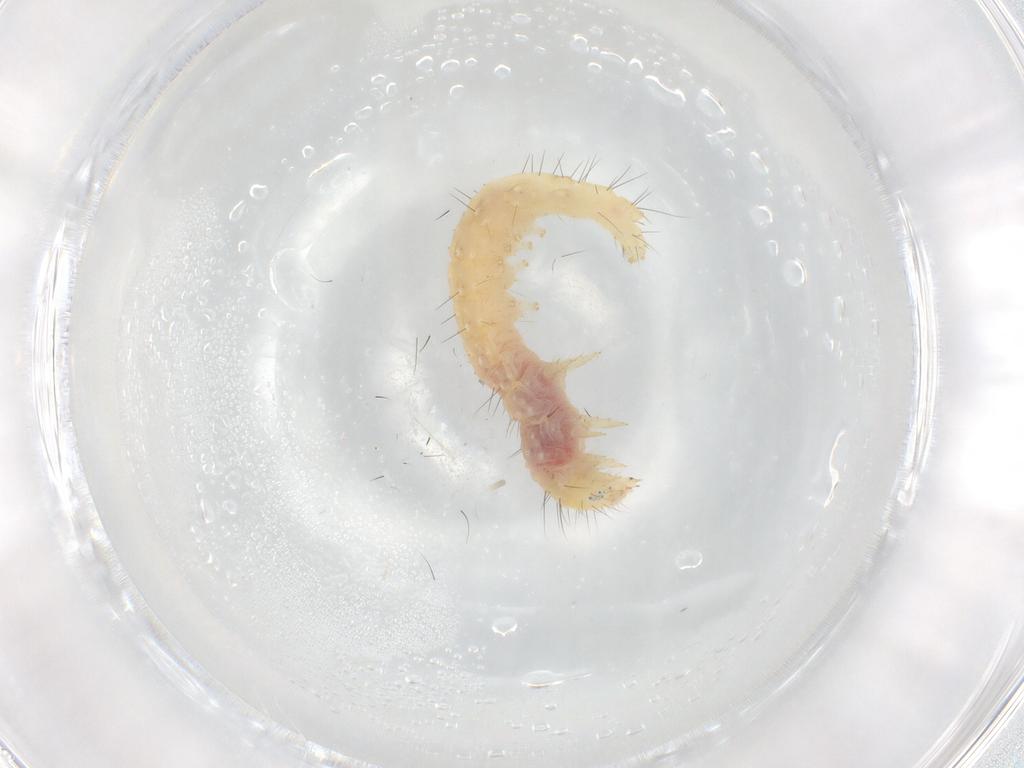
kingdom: Animalia
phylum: Arthropoda
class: Insecta
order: Lepidoptera
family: Gelechiidae
